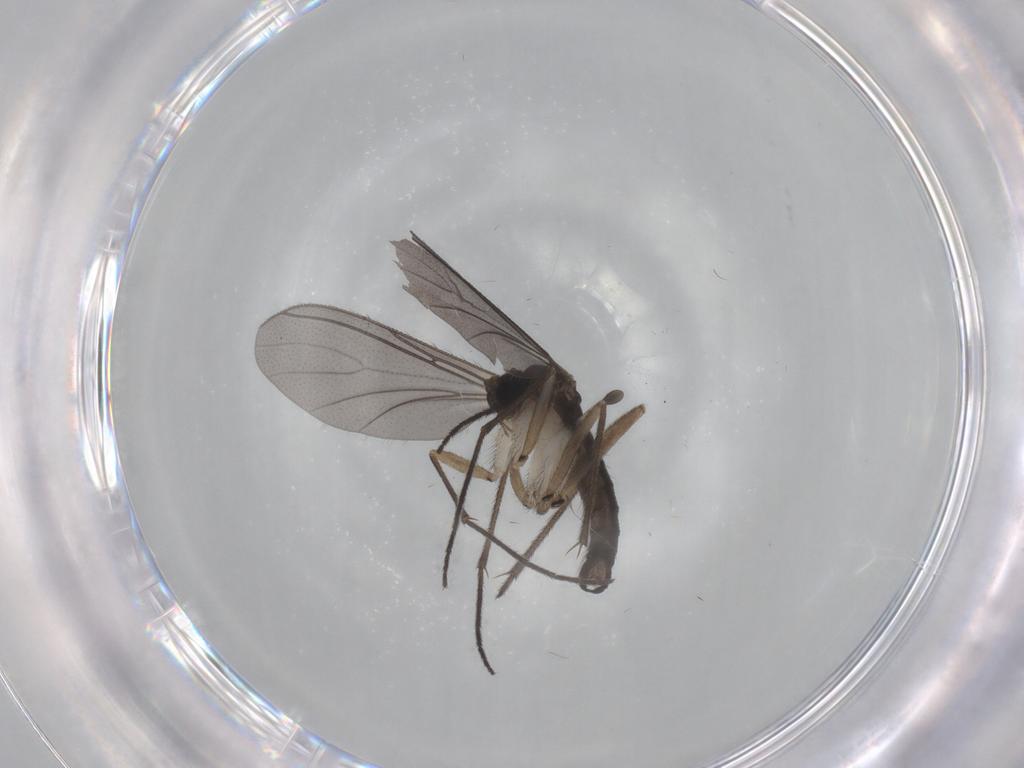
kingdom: Animalia
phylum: Arthropoda
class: Insecta
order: Diptera
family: Sciaridae
